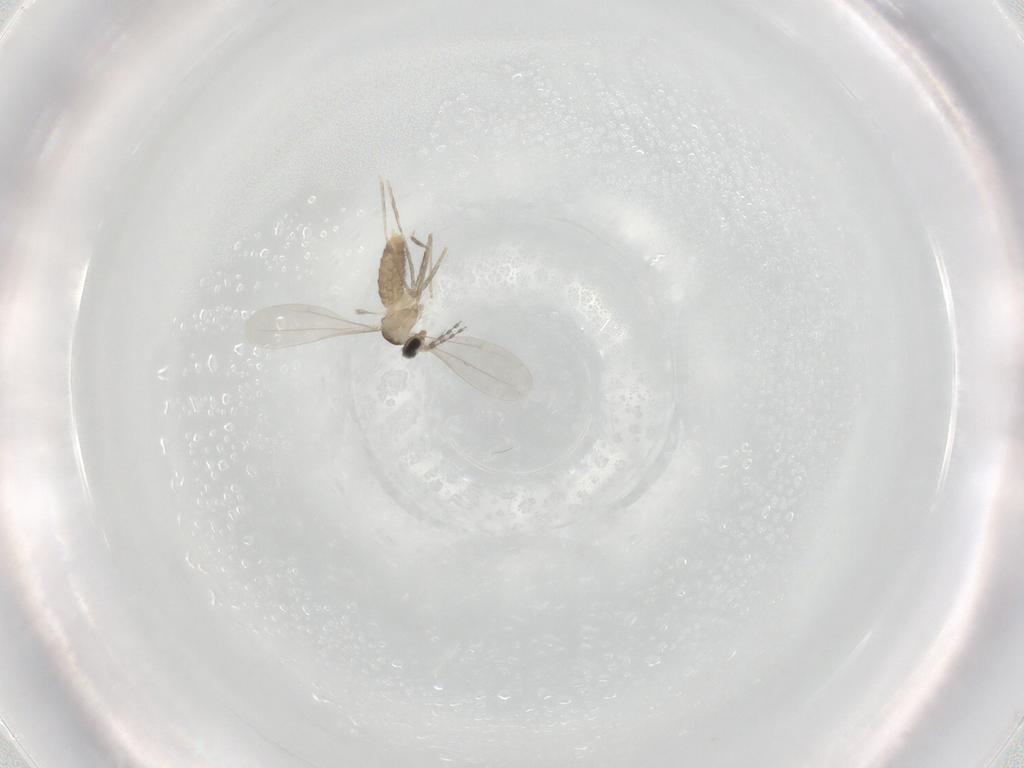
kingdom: Animalia
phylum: Arthropoda
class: Insecta
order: Diptera
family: Cecidomyiidae
